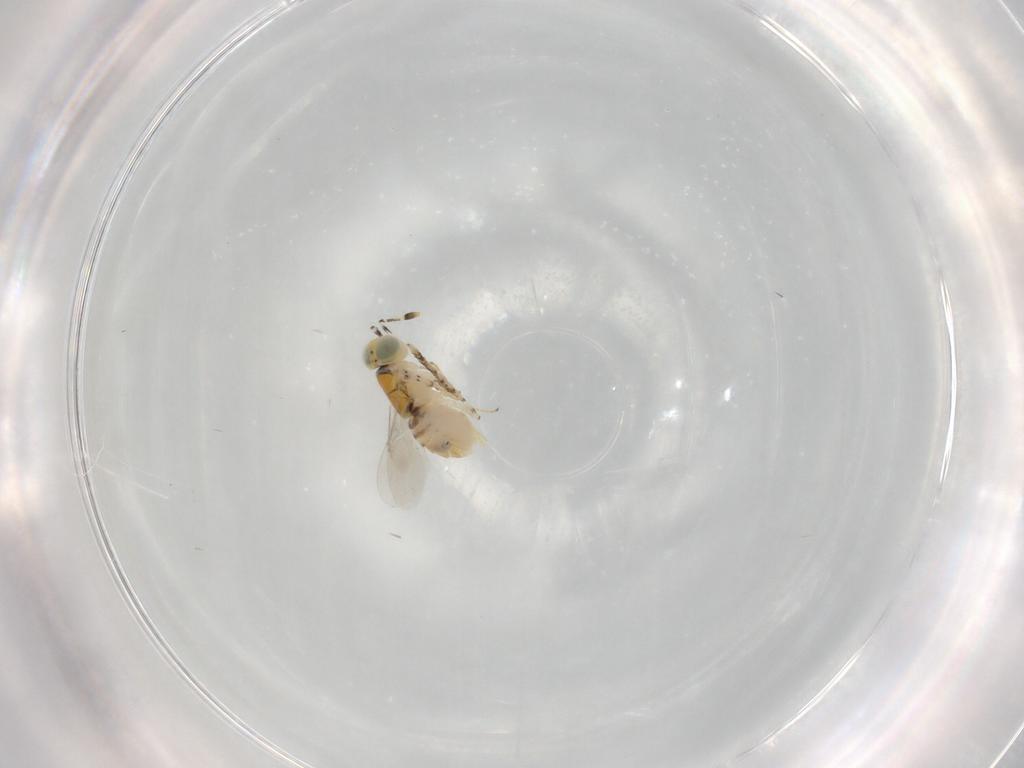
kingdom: Animalia
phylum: Arthropoda
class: Insecta
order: Hymenoptera
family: Encyrtidae
